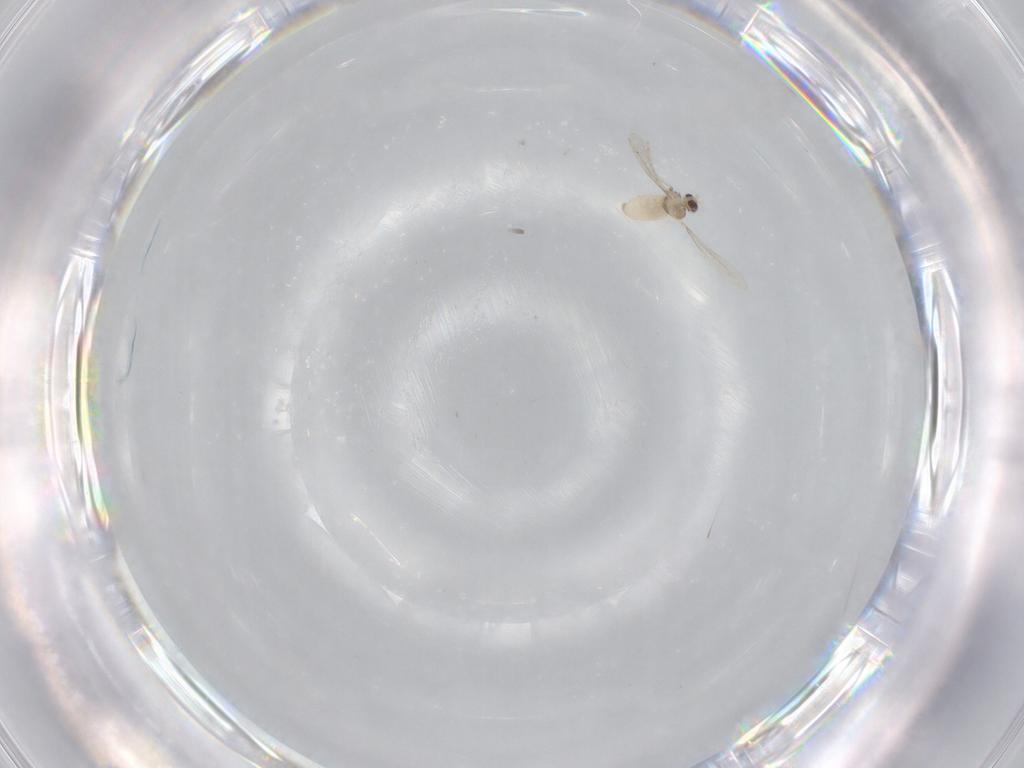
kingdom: Animalia
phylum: Arthropoda
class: Insecta
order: Diptera
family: Cecidomyiidae
